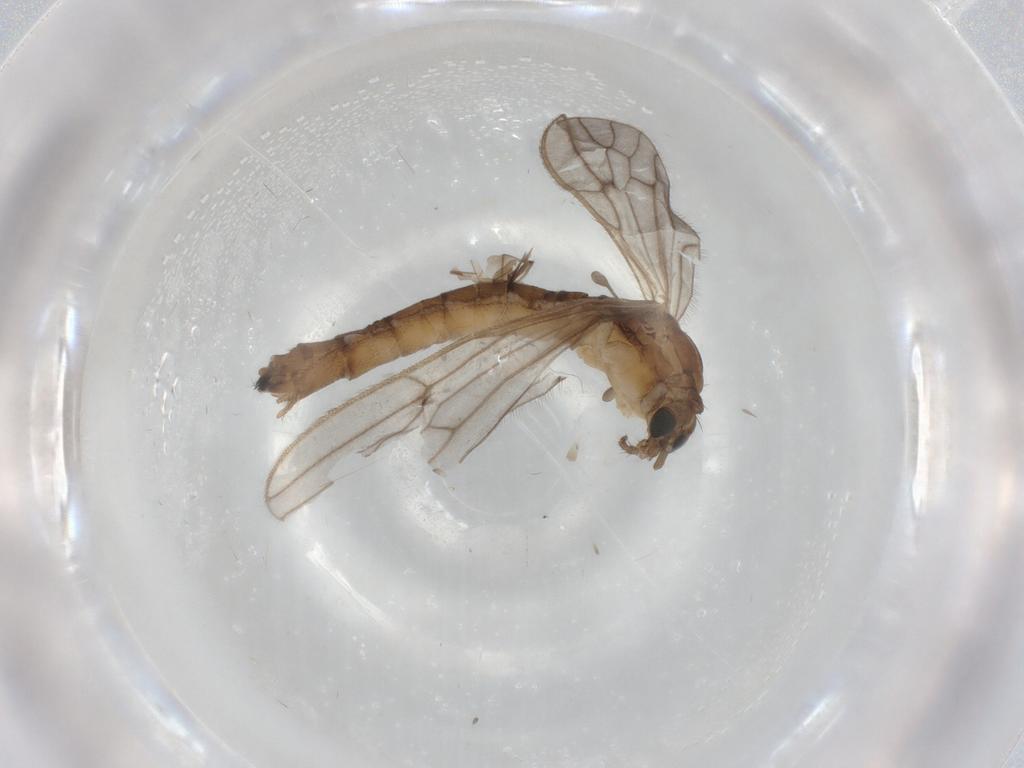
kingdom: Animalia
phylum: Arthropoda
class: Insecta
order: Diptera
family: Limoniidae
